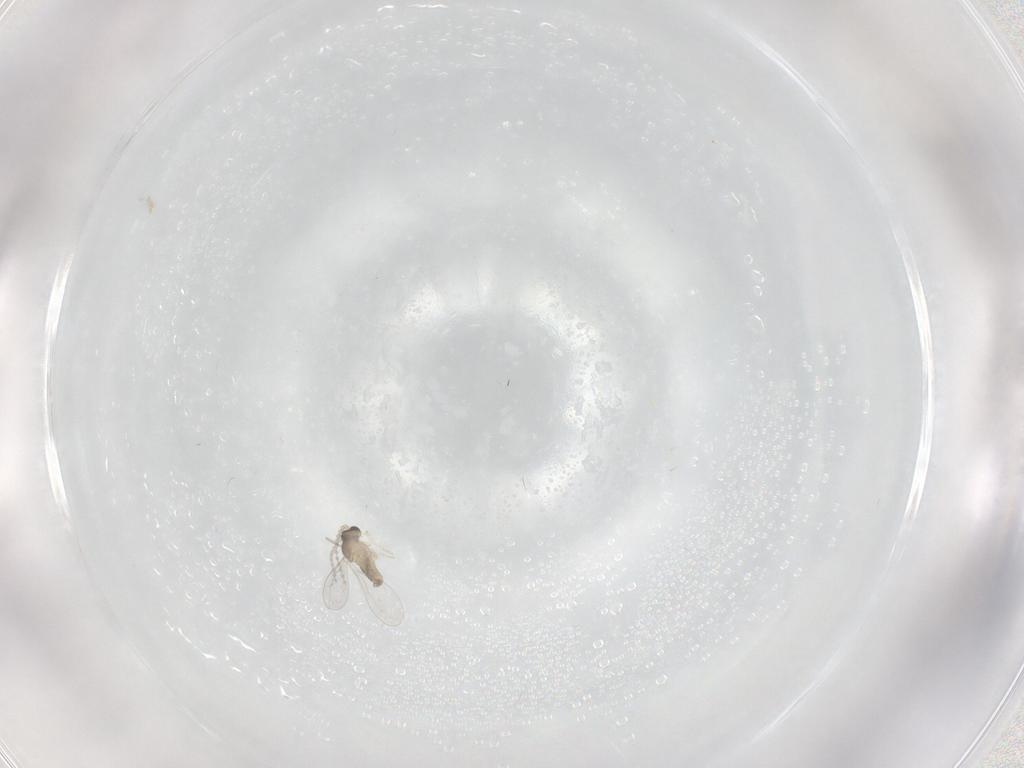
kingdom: Animalia
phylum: Arthropoda
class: Insecta
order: Diptera
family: Cecidomyiidae
